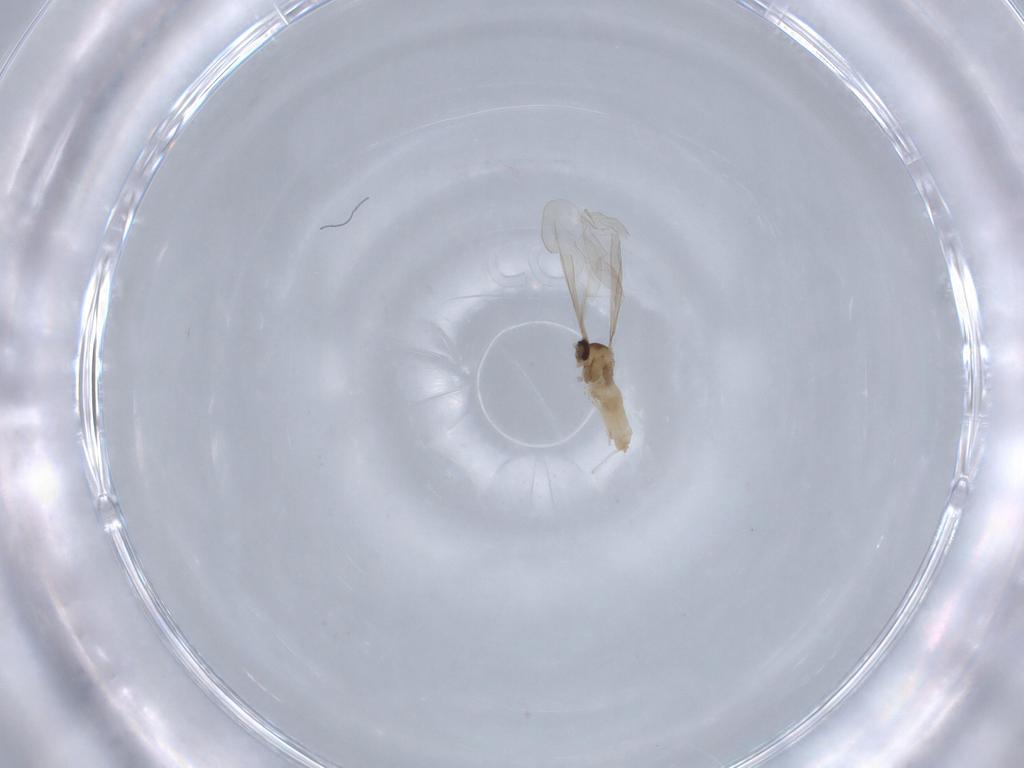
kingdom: Animalia
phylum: Arthropoda
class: Insecta
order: Diptera
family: Chironomidae
